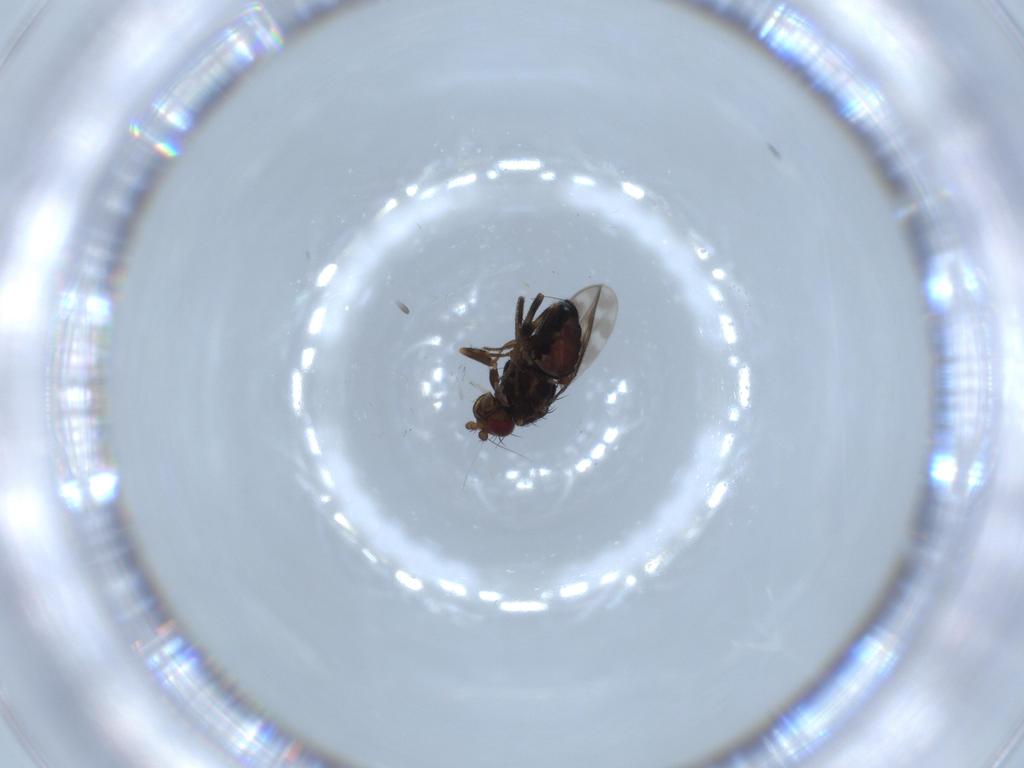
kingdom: Animalia
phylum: Arthropoda
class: Insecta
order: Diptera
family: Sphaeroceridae
